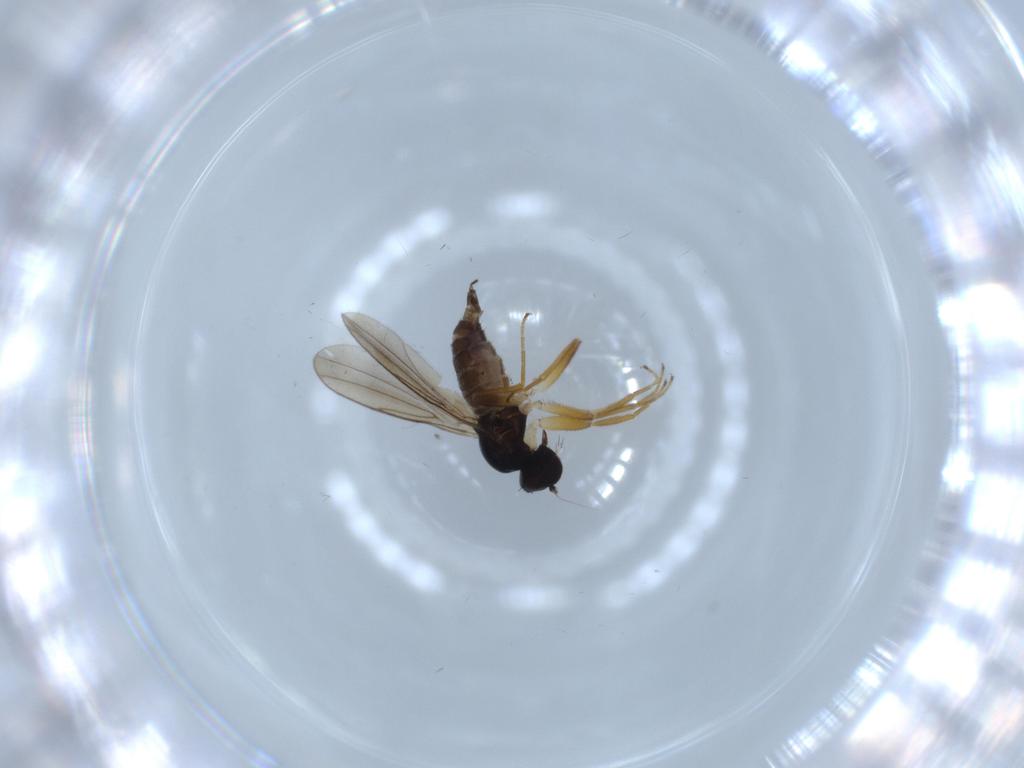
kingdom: Animalia
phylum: Arthropoda
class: Insecta
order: Diptera
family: Hybotidae
